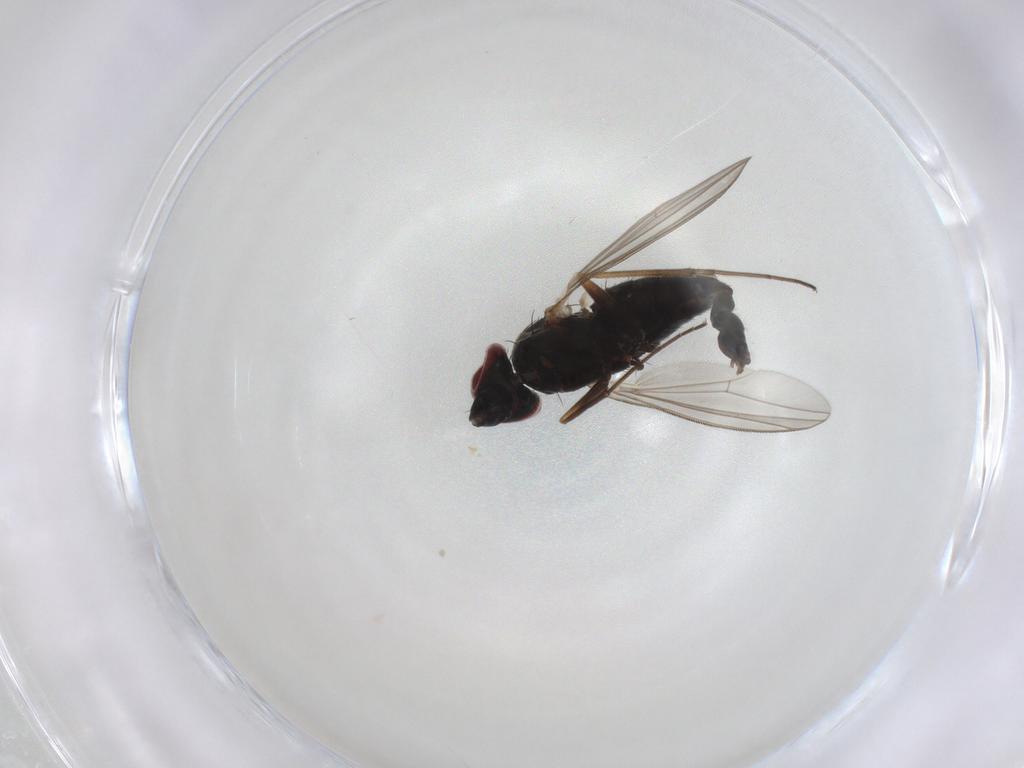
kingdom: Animalia
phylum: Arthropoda
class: Insecta
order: Diptera
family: Dolichopodidae
